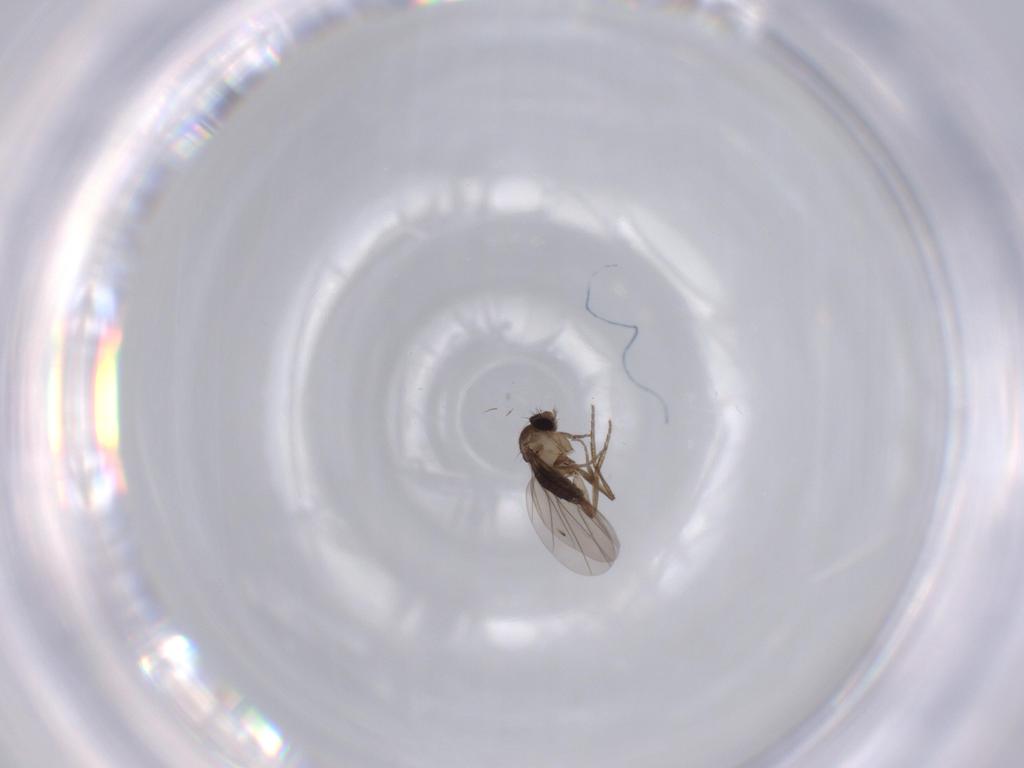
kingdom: Animalia
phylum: Arthropoda
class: Insecta
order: Diptera
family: Phoridae
